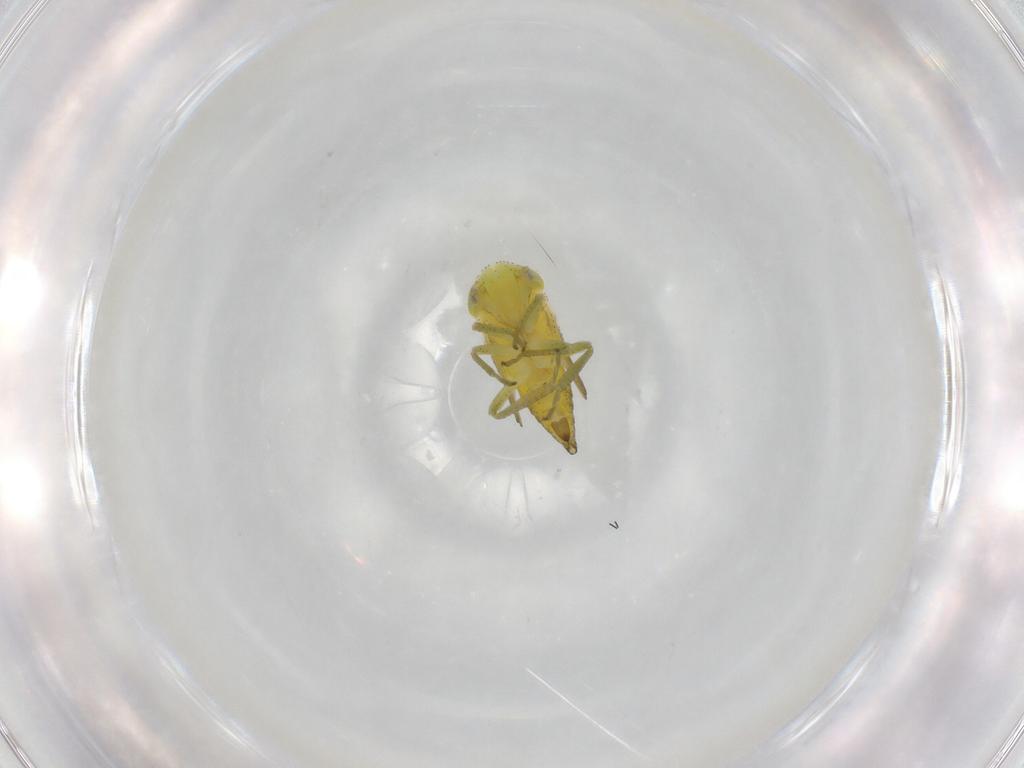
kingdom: Animalia
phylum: Arthropoda
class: Insecta
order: Hemiptera
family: Cicadellidae
